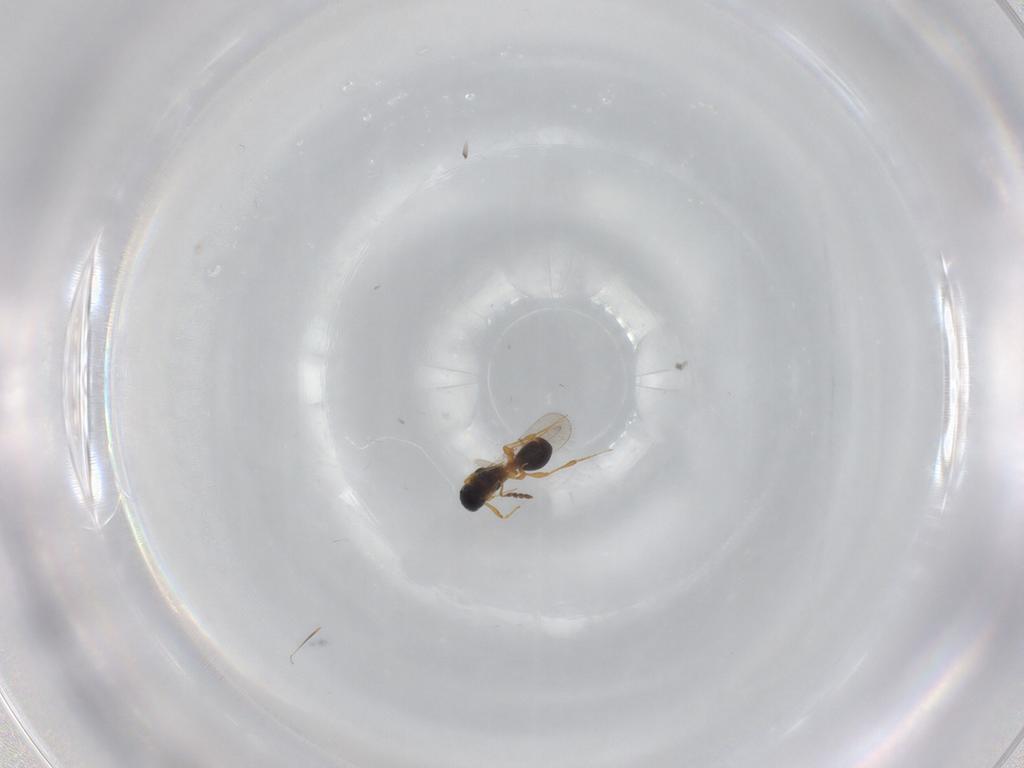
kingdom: Animalia
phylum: Arthropoda
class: Insecta
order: Hymenoptera
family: Platygastridae
